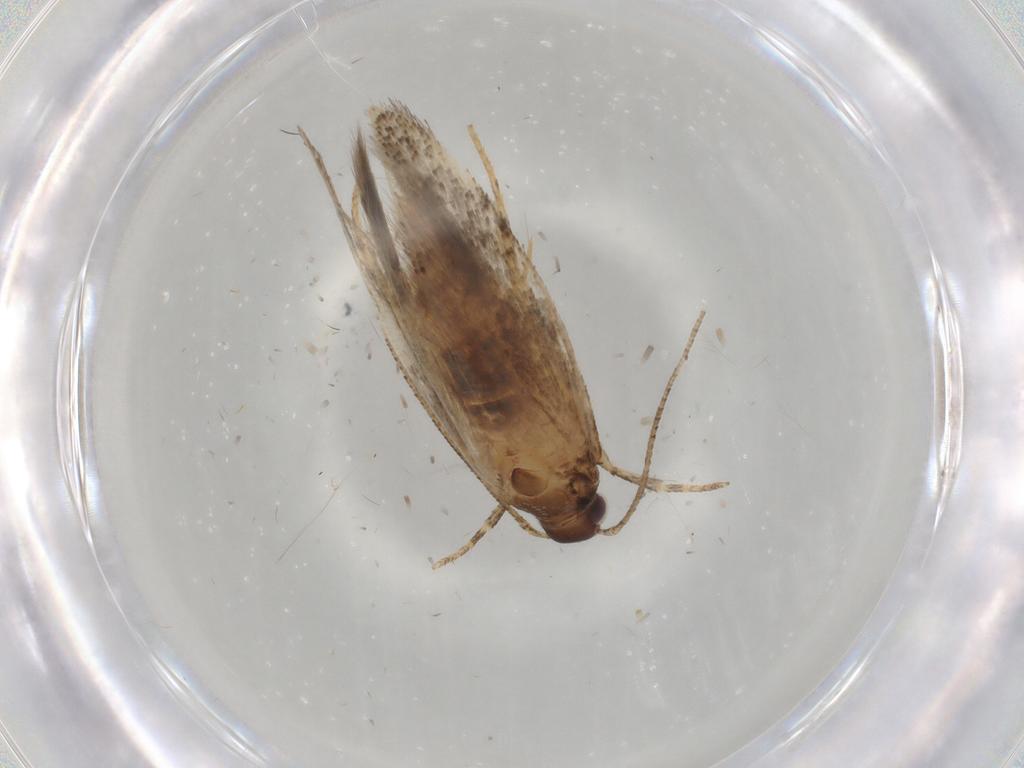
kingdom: Animalia
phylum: Arthropoda
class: Insecta
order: Lepidoptera
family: Gelechiidae
